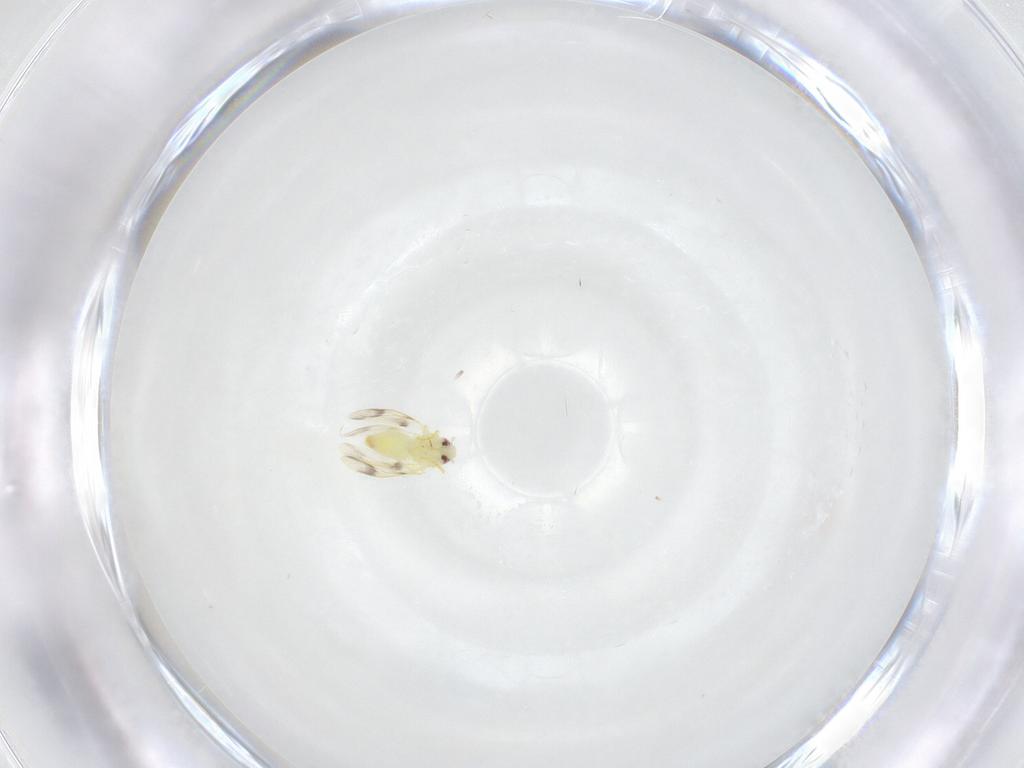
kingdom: Animalia
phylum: Arthropoda
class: Insecta
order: Hemiptera
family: Aleyrodidae
